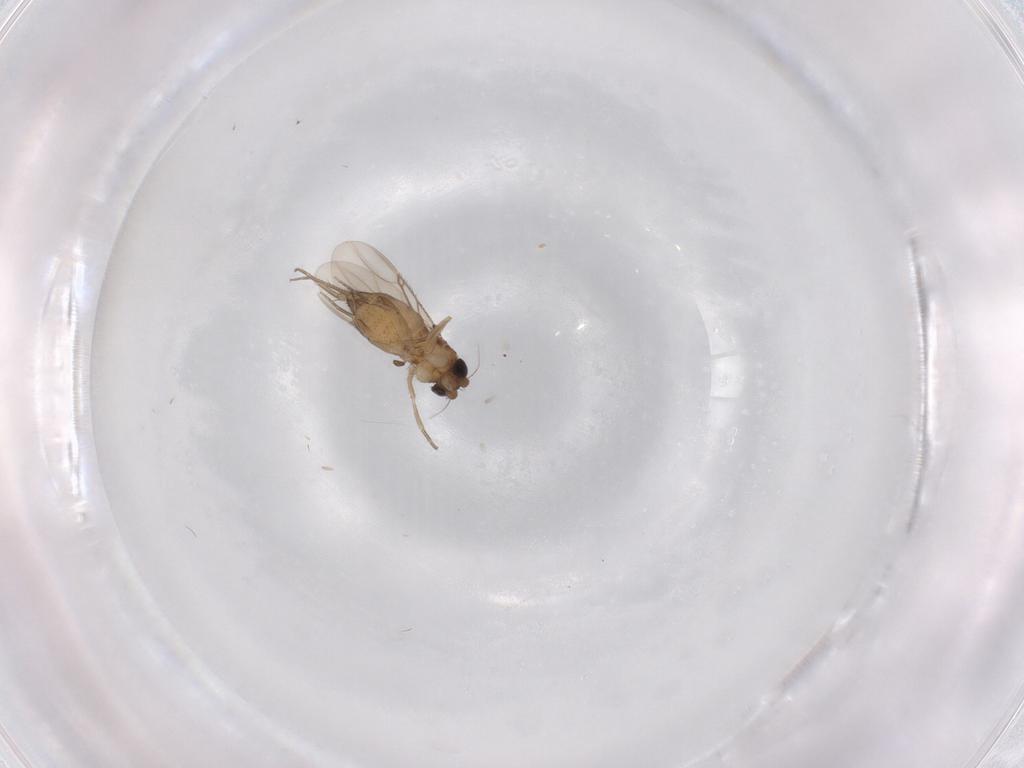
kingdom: Animalia
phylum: Arthropoda
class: Insecta
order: Diptera
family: Phoridae
